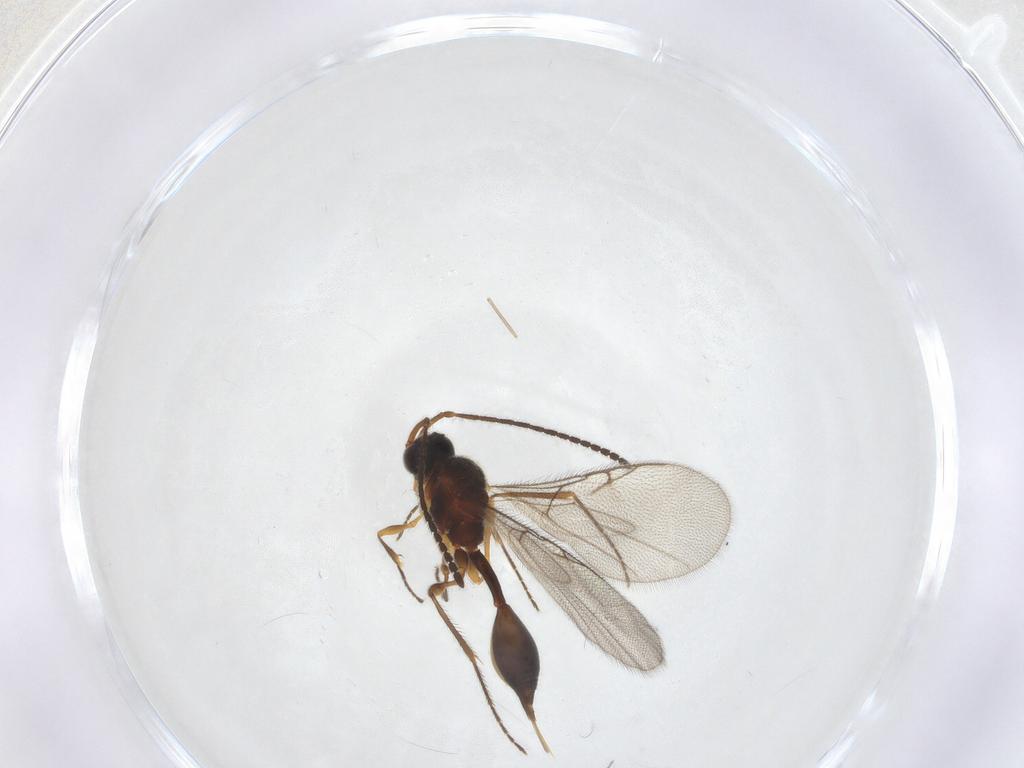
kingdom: Animalia
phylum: Arthropoda
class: Insecta
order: Hymenoptera
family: Diapriidae
